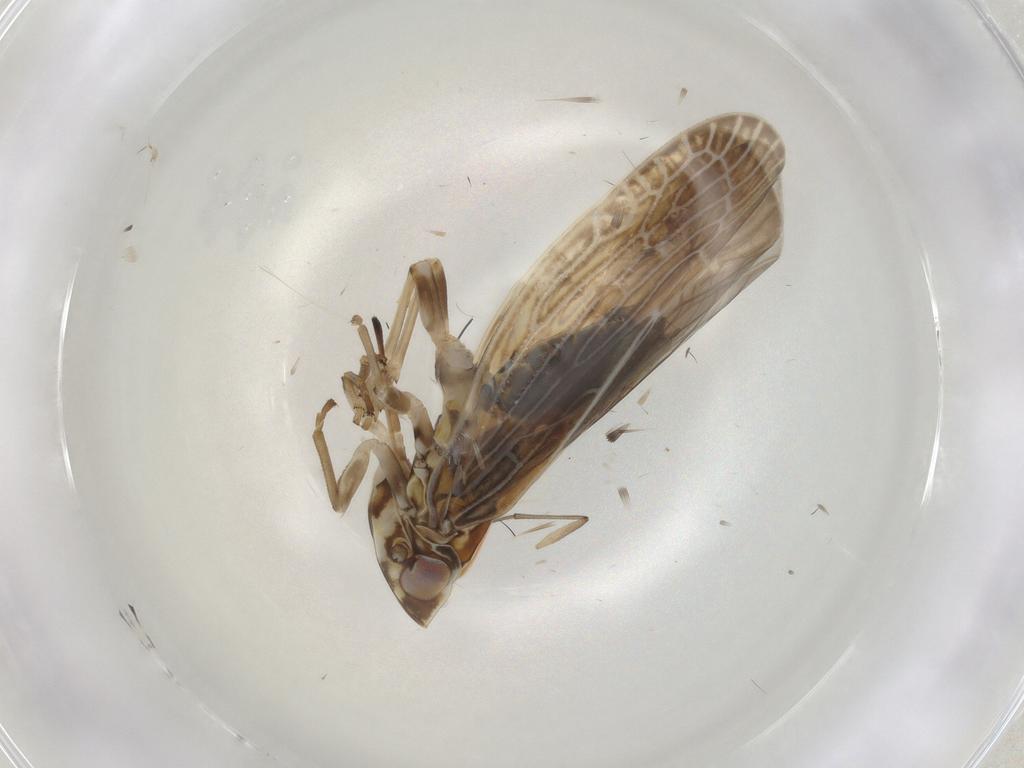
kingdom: Animalia
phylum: Arthropoda
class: Insecta
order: Hemiptera
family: Achilidae
